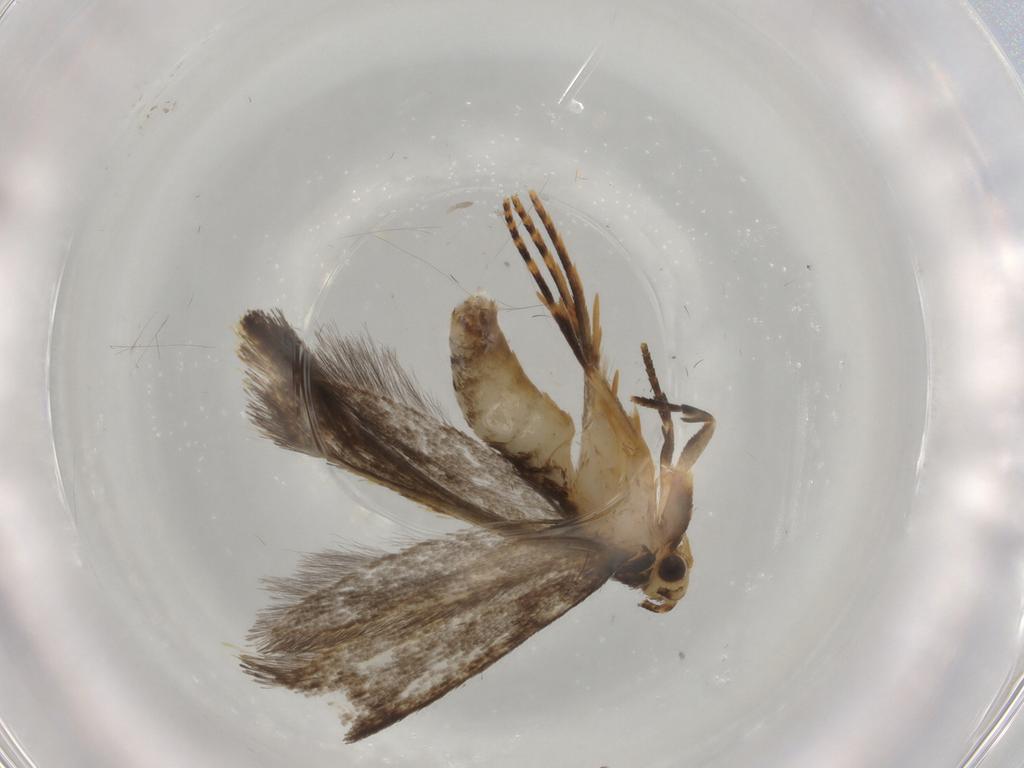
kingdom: Animalia
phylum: Arthropoda
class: Insecta
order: Lepidoptera
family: Tineidae
